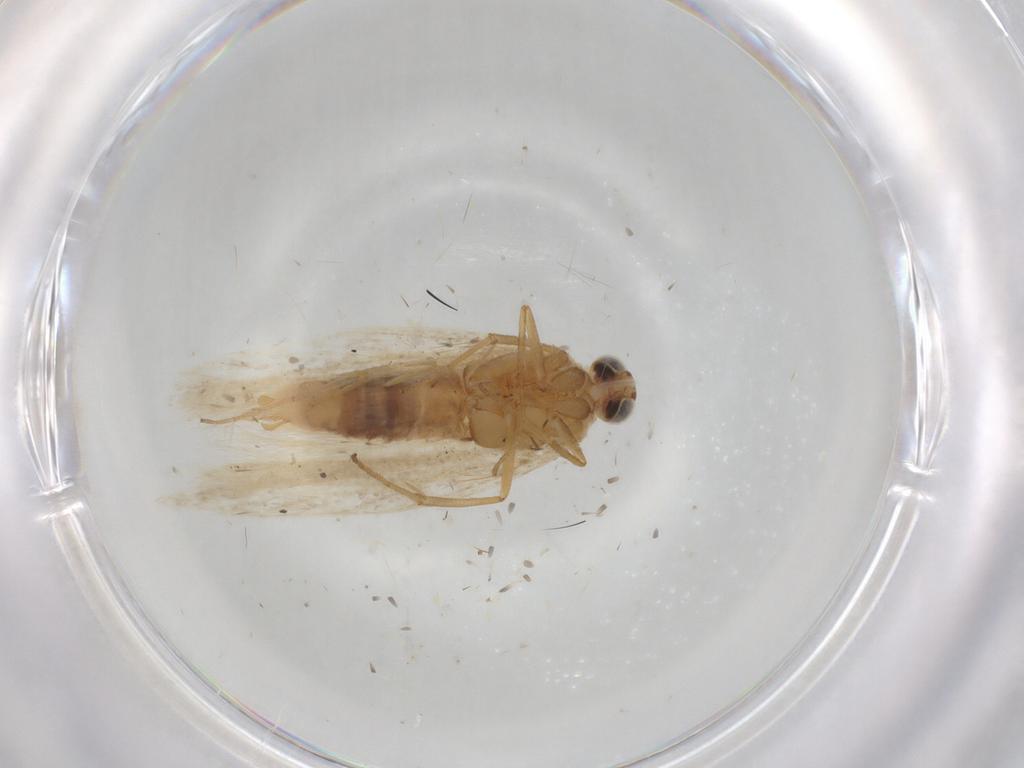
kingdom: Animalia
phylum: Arthropoda
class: Insecta
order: Lepidoptera
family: Gelechiidae
